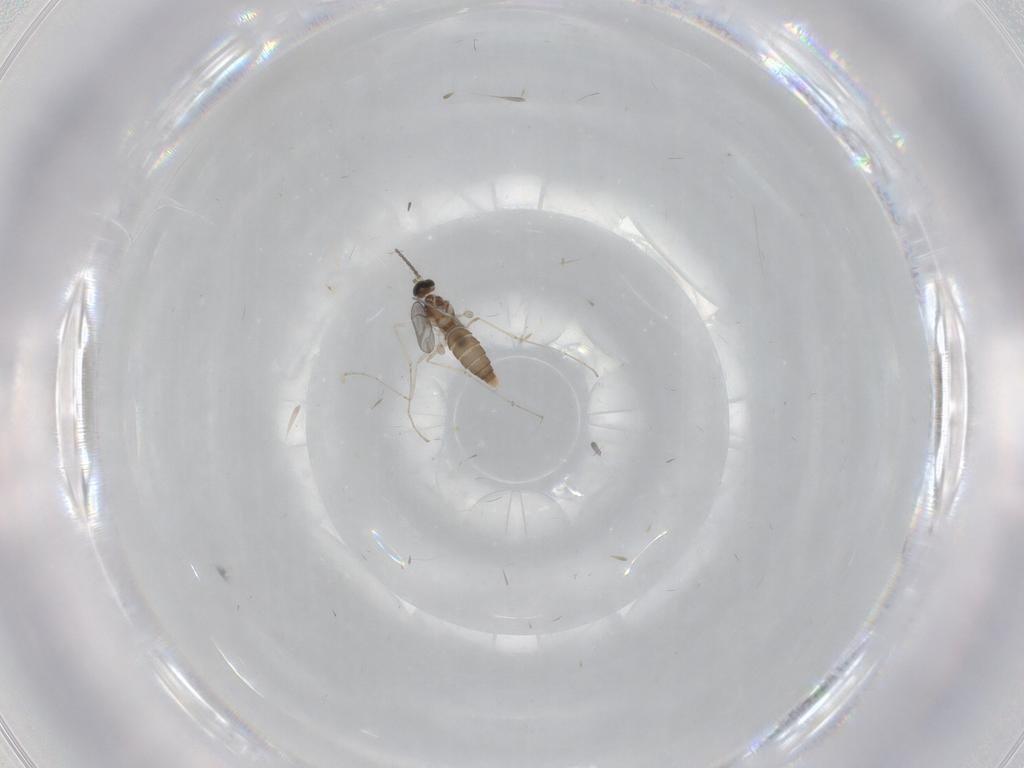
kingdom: Animalia
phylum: Arthropoda
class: Insecta
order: Diptera
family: Cecidomyiidae
